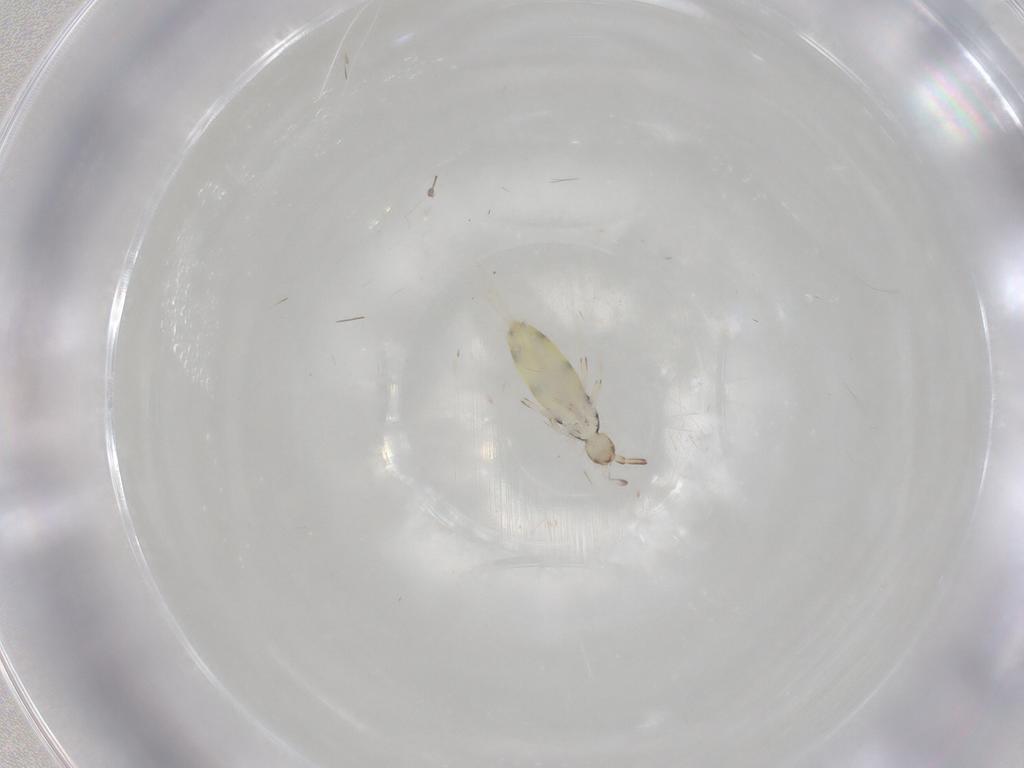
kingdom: Animalia
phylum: Arthropoda
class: Collembola
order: Entomobryomorpha
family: Entomobryidae
